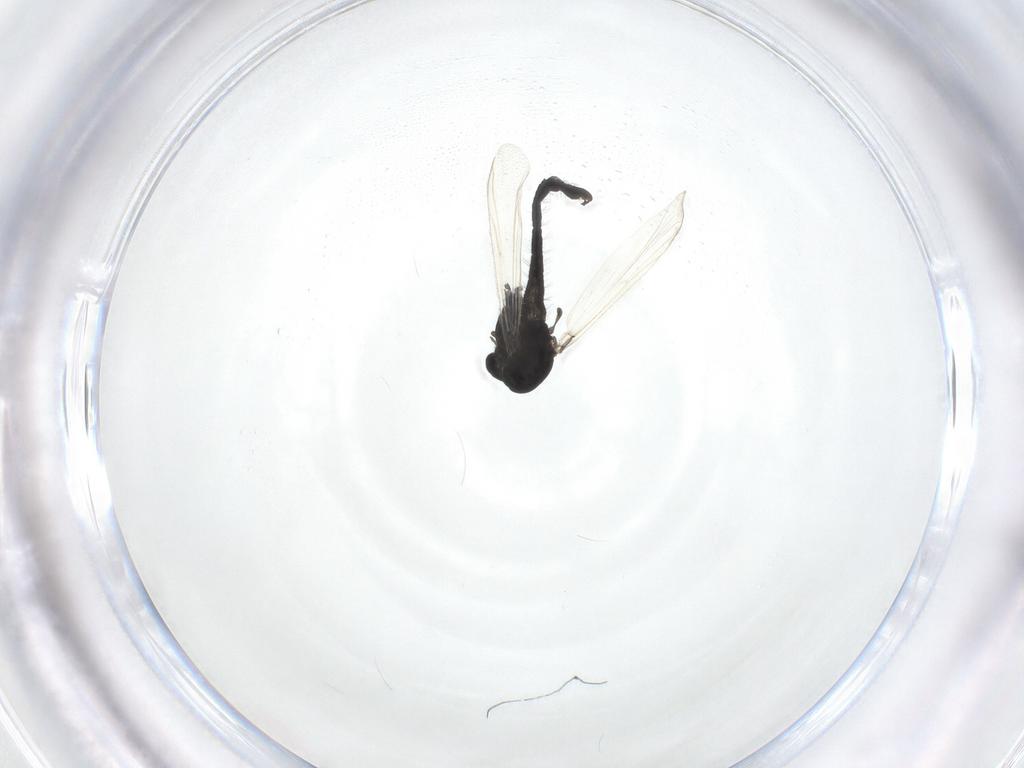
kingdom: Animalia
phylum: Arthropoda
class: Insecta
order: Diptera
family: Chironomidae
